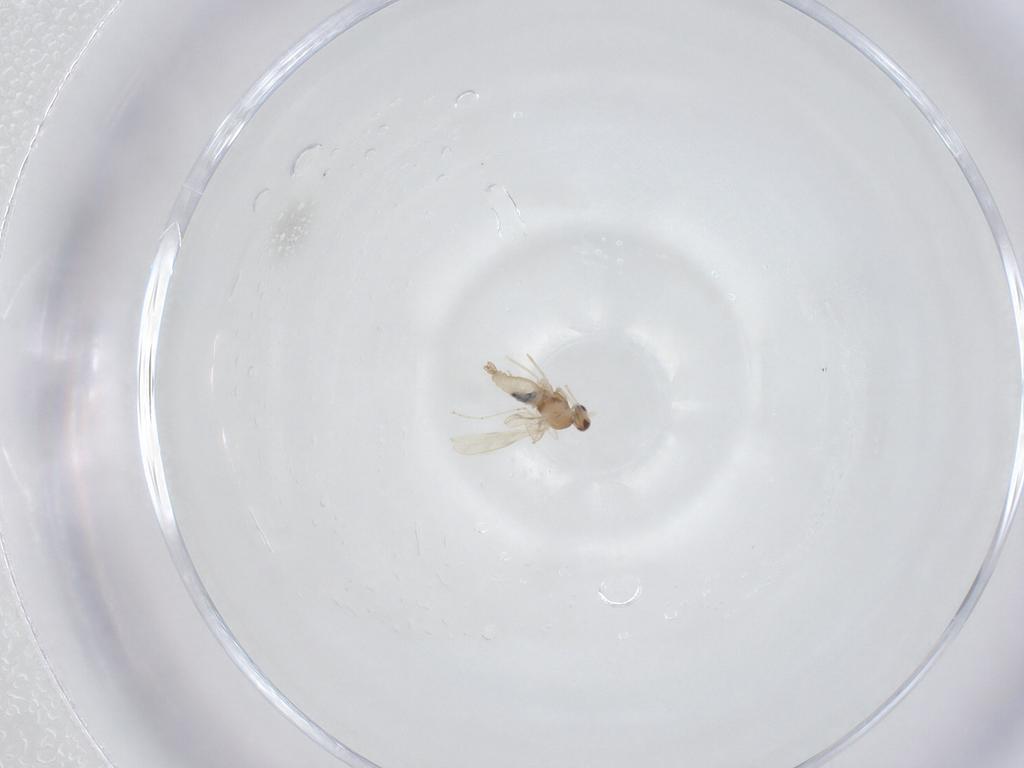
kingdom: Animalia
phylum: Arthropoda
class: Insecta
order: Diptera
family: Cecidomyiidae
